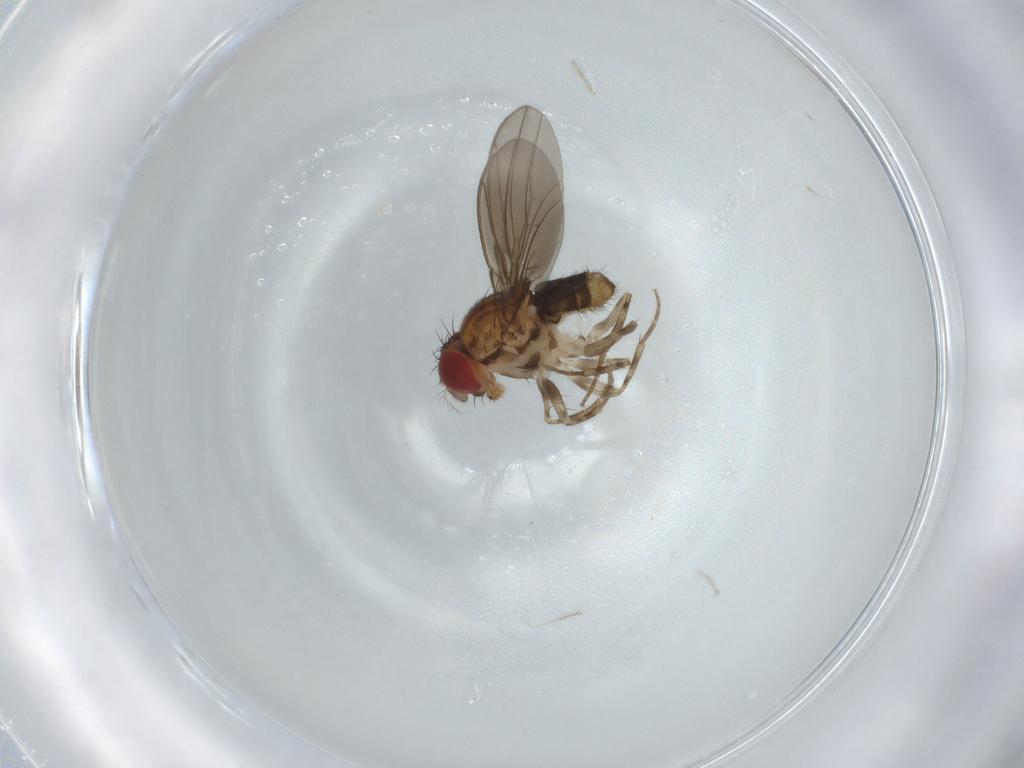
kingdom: Animalia
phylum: Arthropoda
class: Insecta
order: Diptera
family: Drosophilidae
